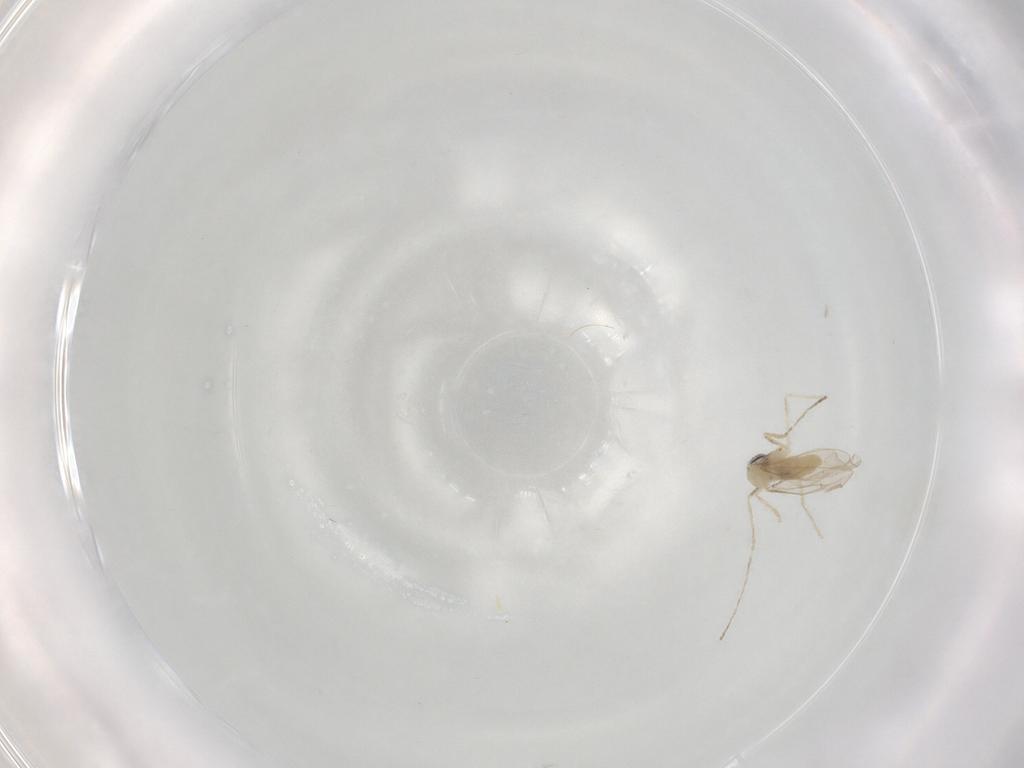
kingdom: Animalia
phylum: Arthropoda
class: Insecta
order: Diptera
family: Cecidomyiidae
